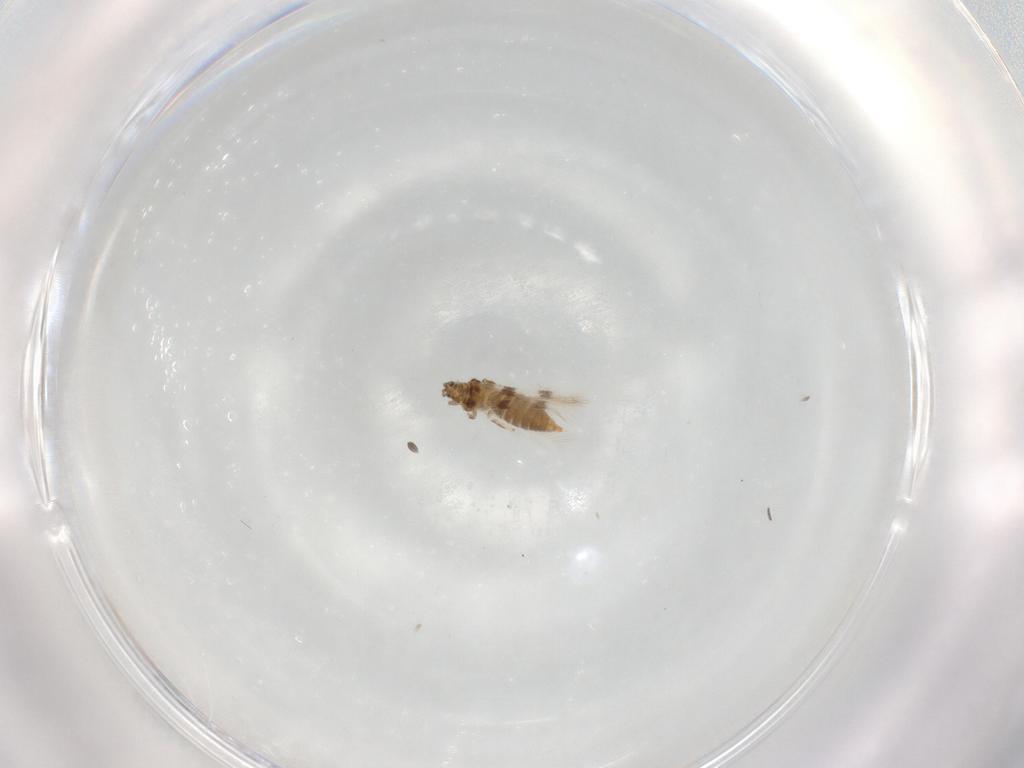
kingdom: Animalia
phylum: Arthropoda
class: Insecta
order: Thysanoptera
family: Thripidae
